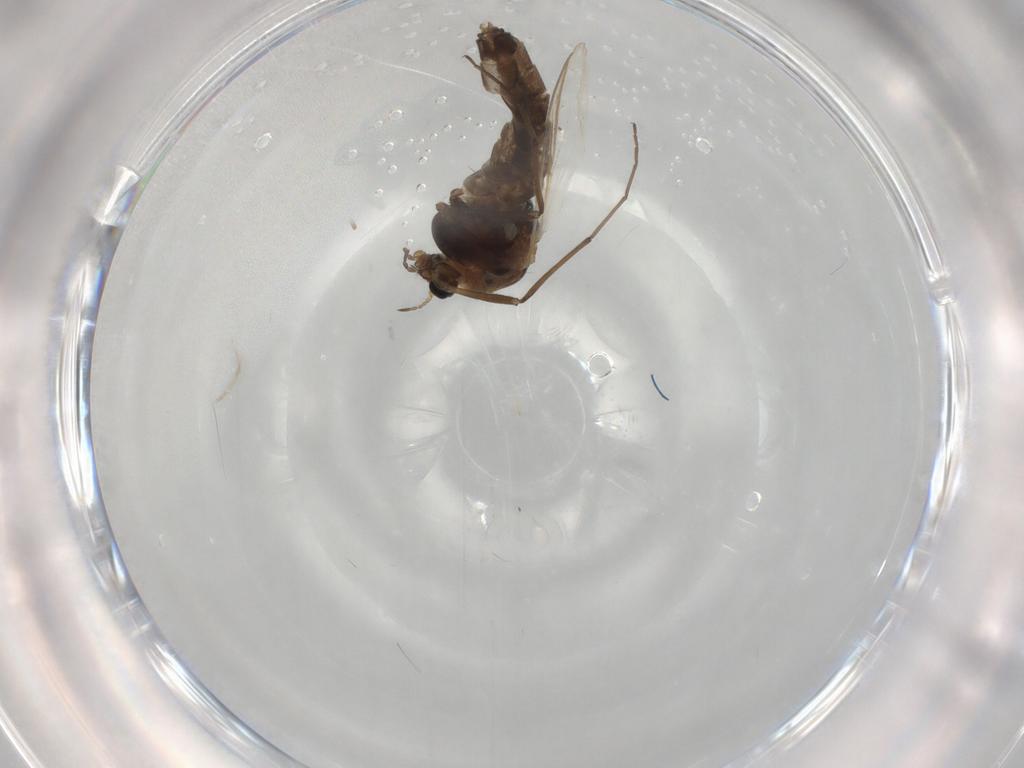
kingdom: Animalia
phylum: Arthropoda
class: Insecta
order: Diptera
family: Chironomidae
